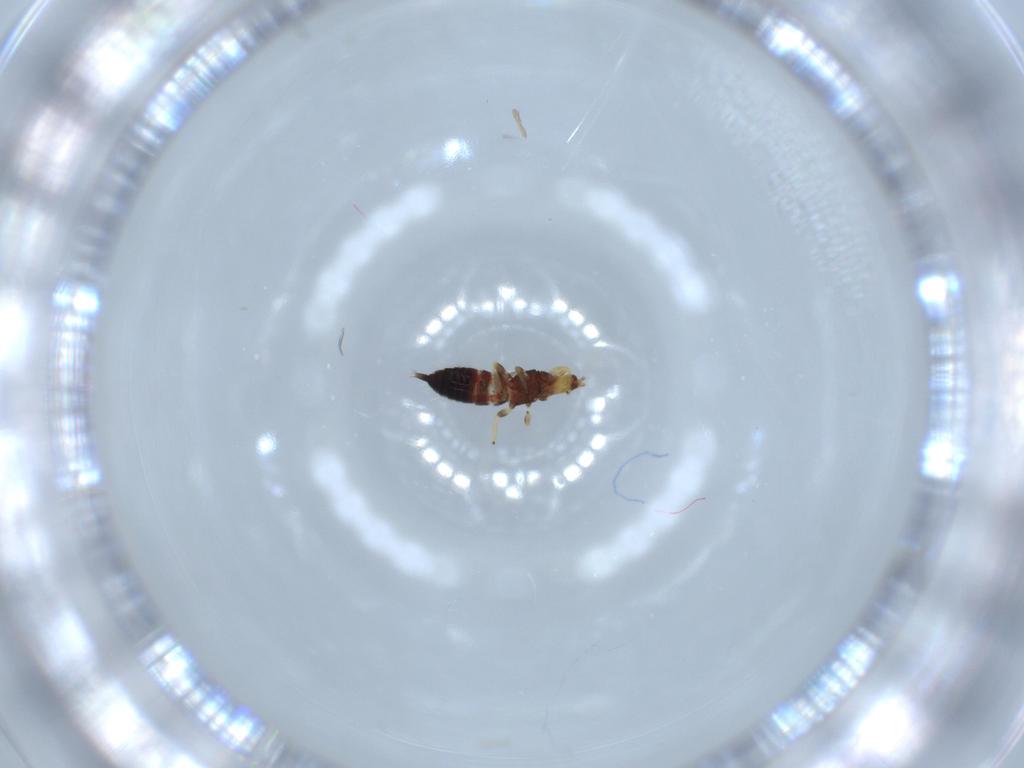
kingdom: Animalia
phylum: Arthropoda
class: Insecta
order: Thysanoptera
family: Phlaeothripidae
